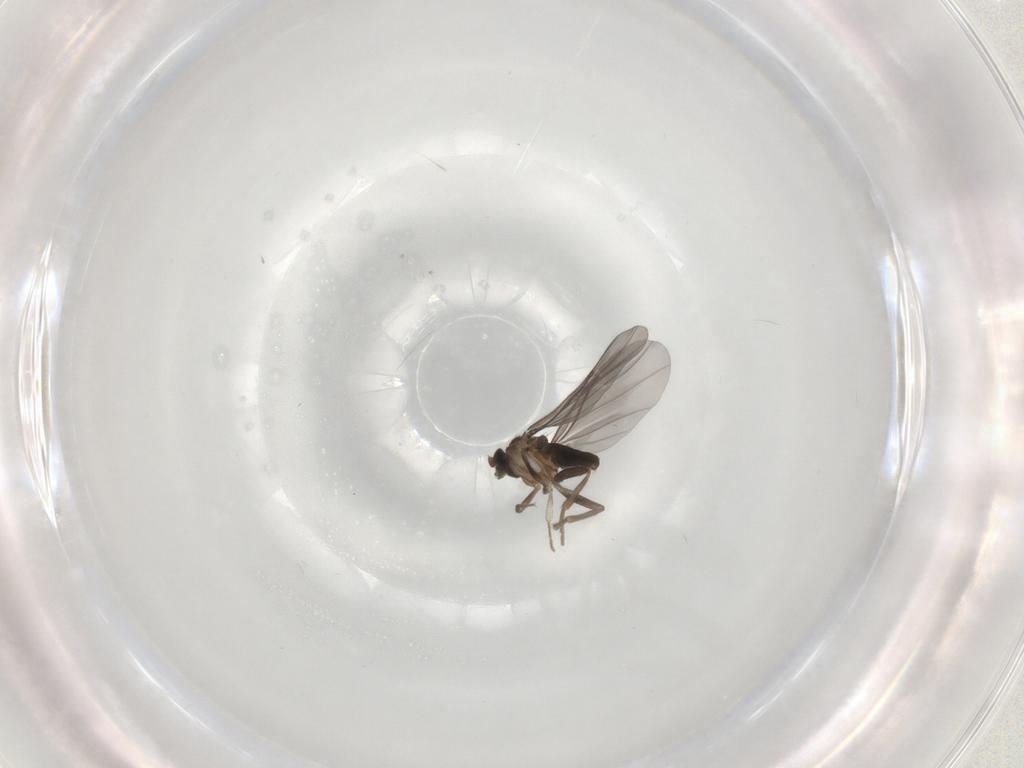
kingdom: Animalia
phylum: Arthropoda
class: Insecta
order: Diptera
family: Phoridae
